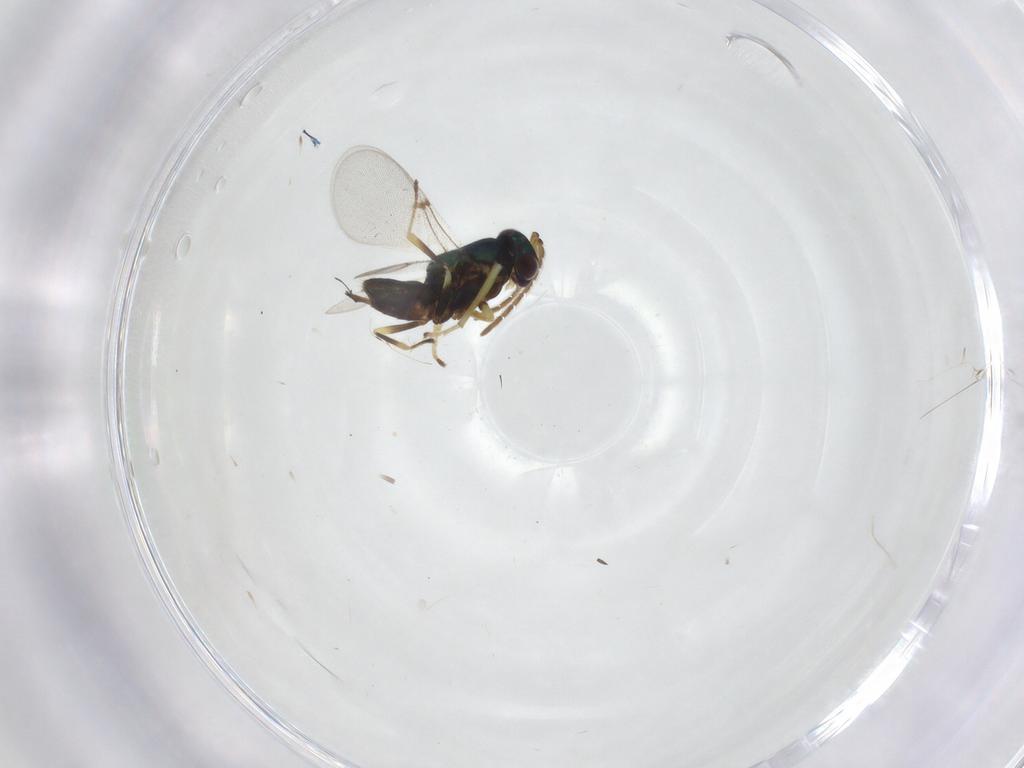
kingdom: Animalia
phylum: Arthropoda
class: Insecta
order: Hymenoptera
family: Encyrtidae
